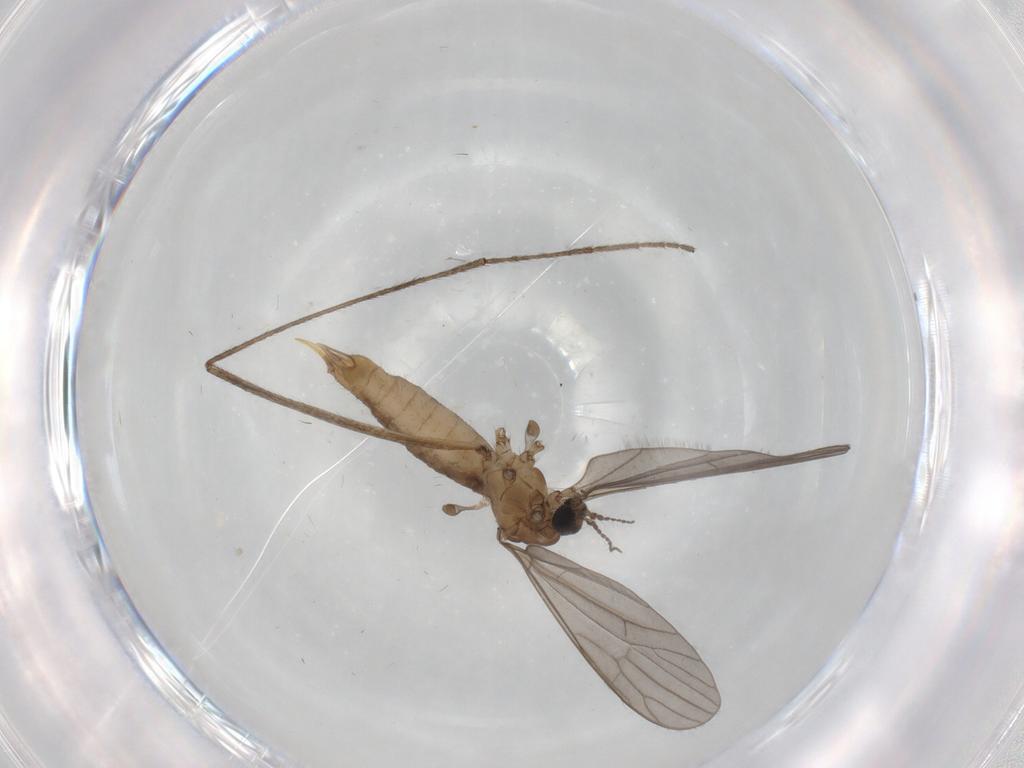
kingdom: Animalia
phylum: Arthropoda
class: Insecta
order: Diptera
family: Limoniidae
